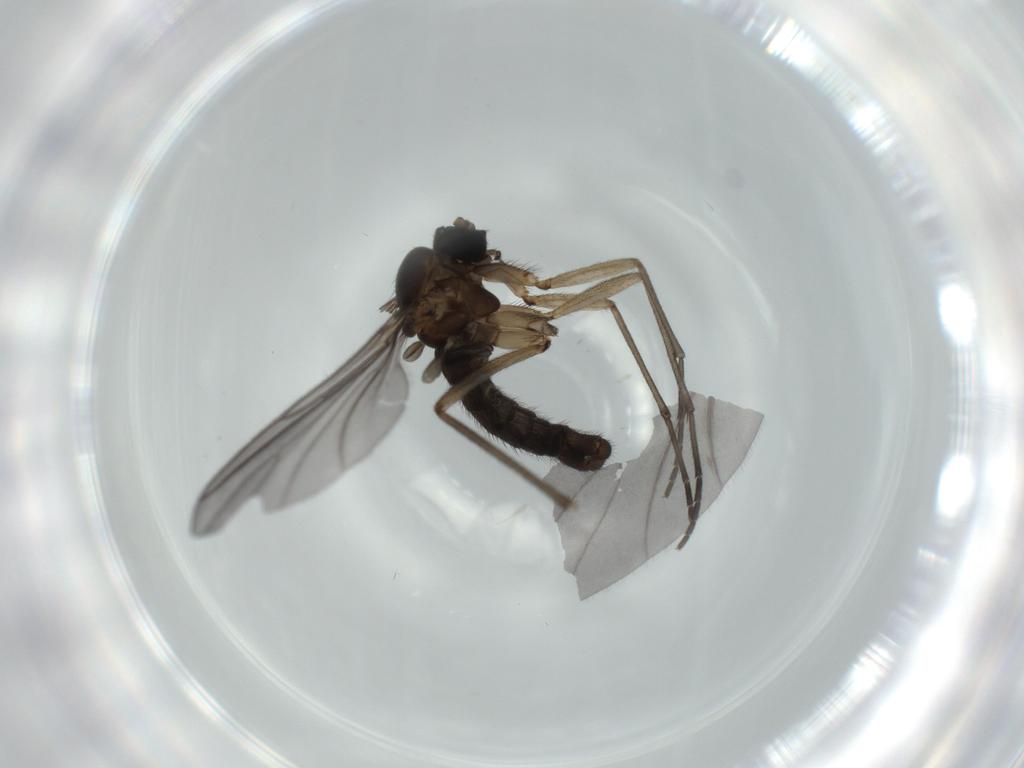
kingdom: Animalia
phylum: Arthropoda
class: Insecta
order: Diptera
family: Sciaridae
